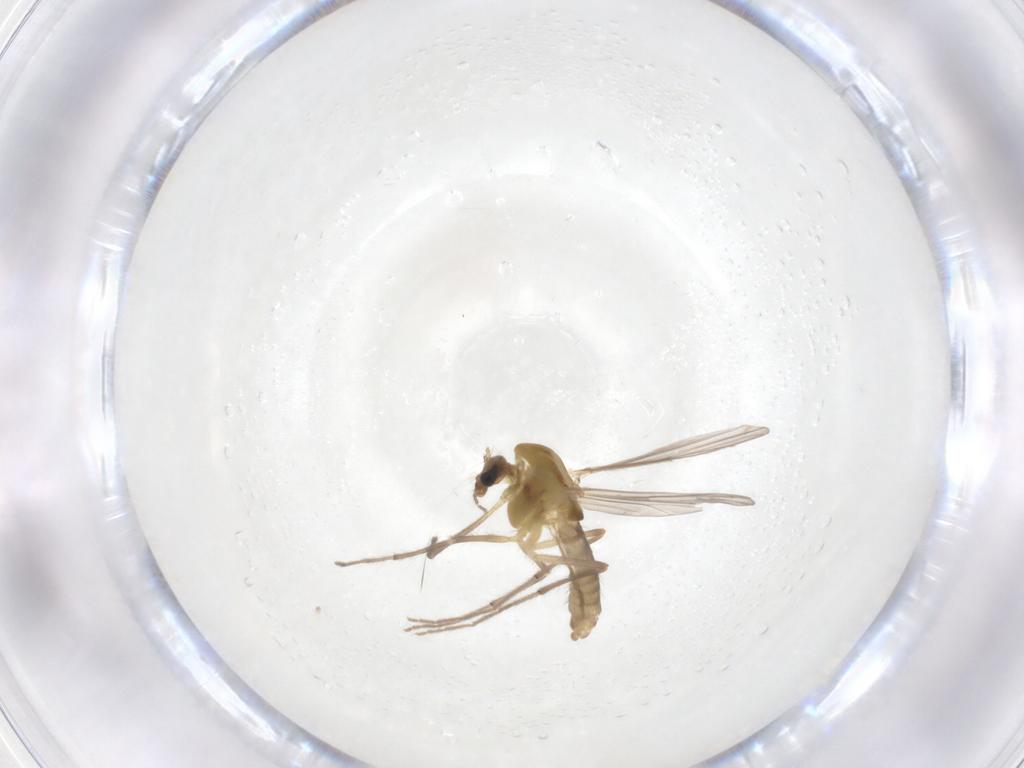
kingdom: Animalia
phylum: Arthropoda
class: Insecta
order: Diptera
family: Chironomidae
